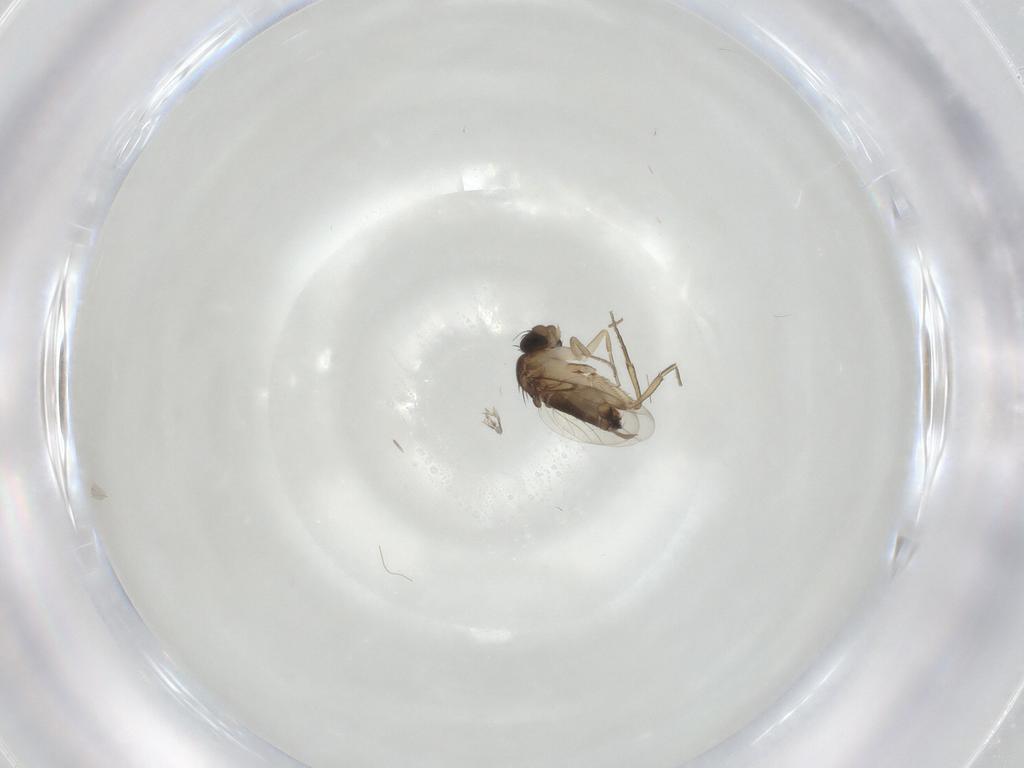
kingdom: Animalia
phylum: Arthropoda
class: Insecta
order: Diptera
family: Phoridae
